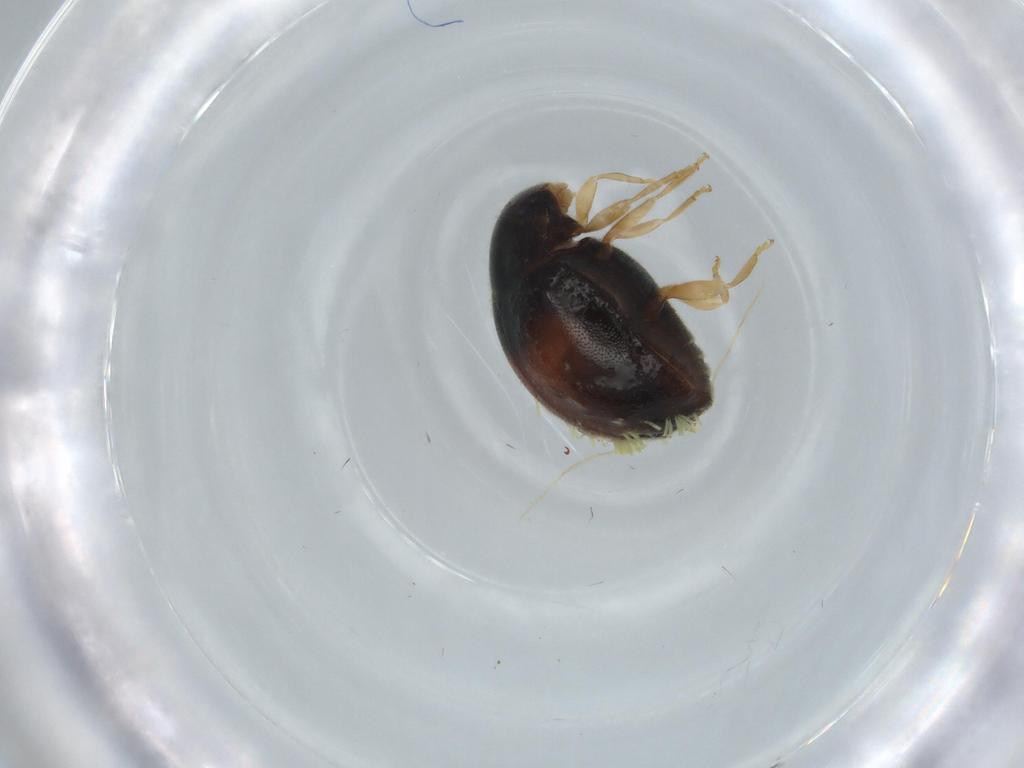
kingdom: Animalia
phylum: Arthropoda
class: Insecta
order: Coleoptera
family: Coccinellidae
